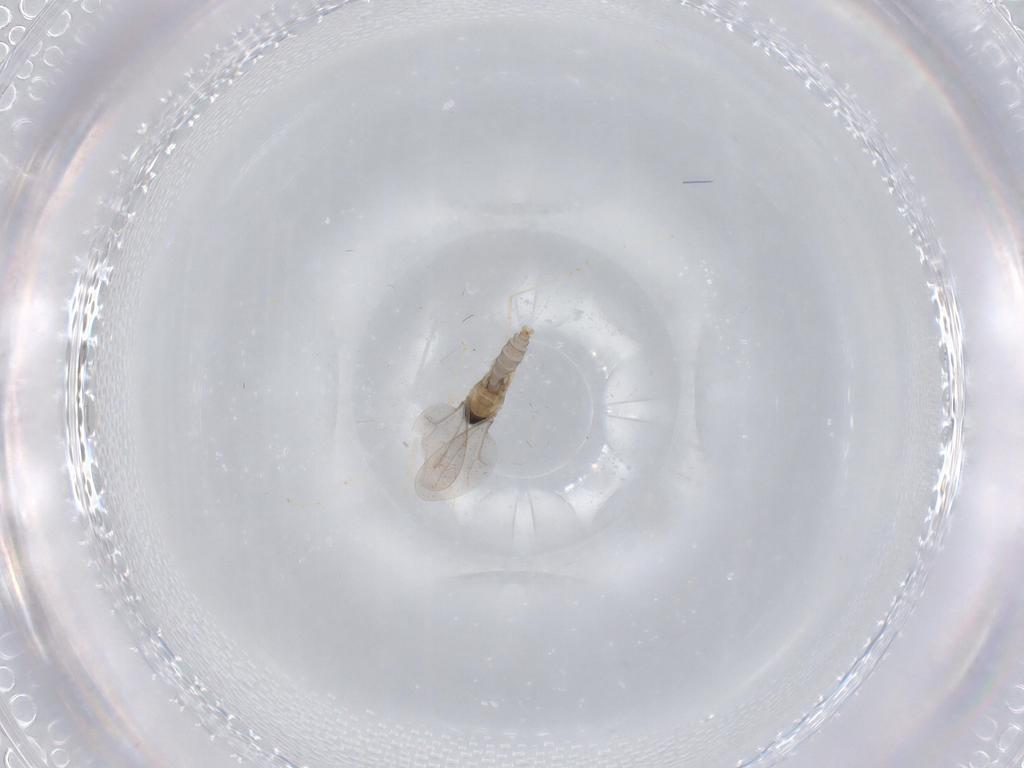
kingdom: Animalia
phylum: Arthropoda
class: Insecta
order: Diptera
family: Cecidomyiidae
